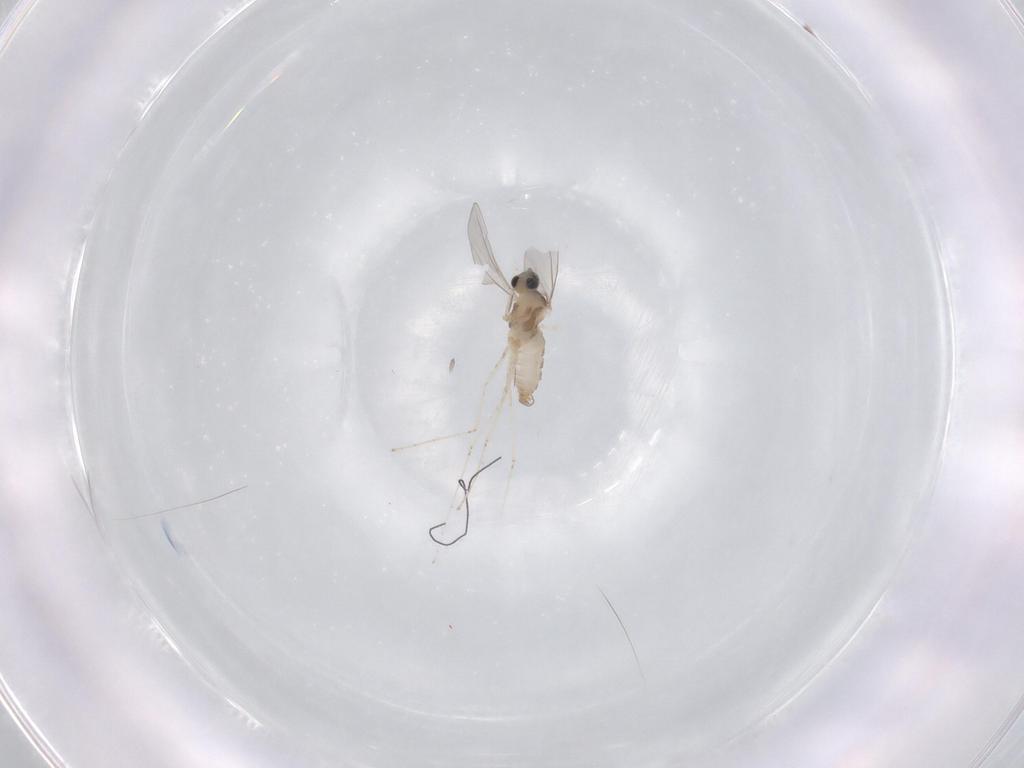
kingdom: Animalia
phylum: Arthropoda
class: Insecta
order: Diptera
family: Cecidomyiidae
